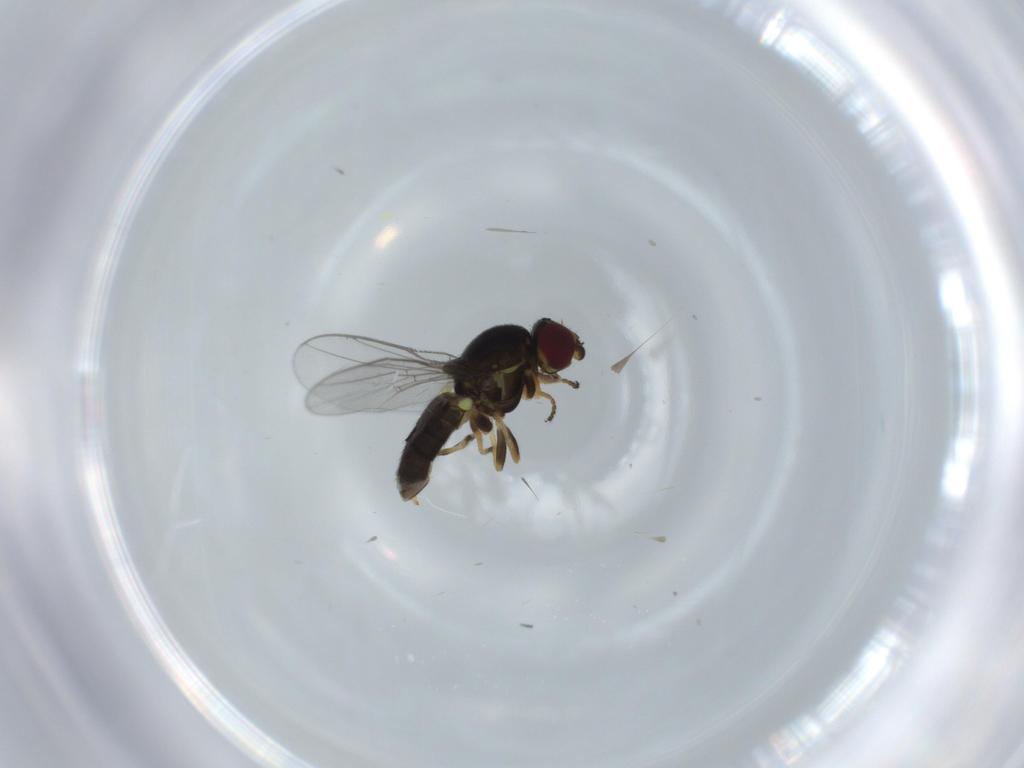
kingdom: Animalia
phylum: Arthropoda
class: Insecta
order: Diptera
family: Chloropidae
